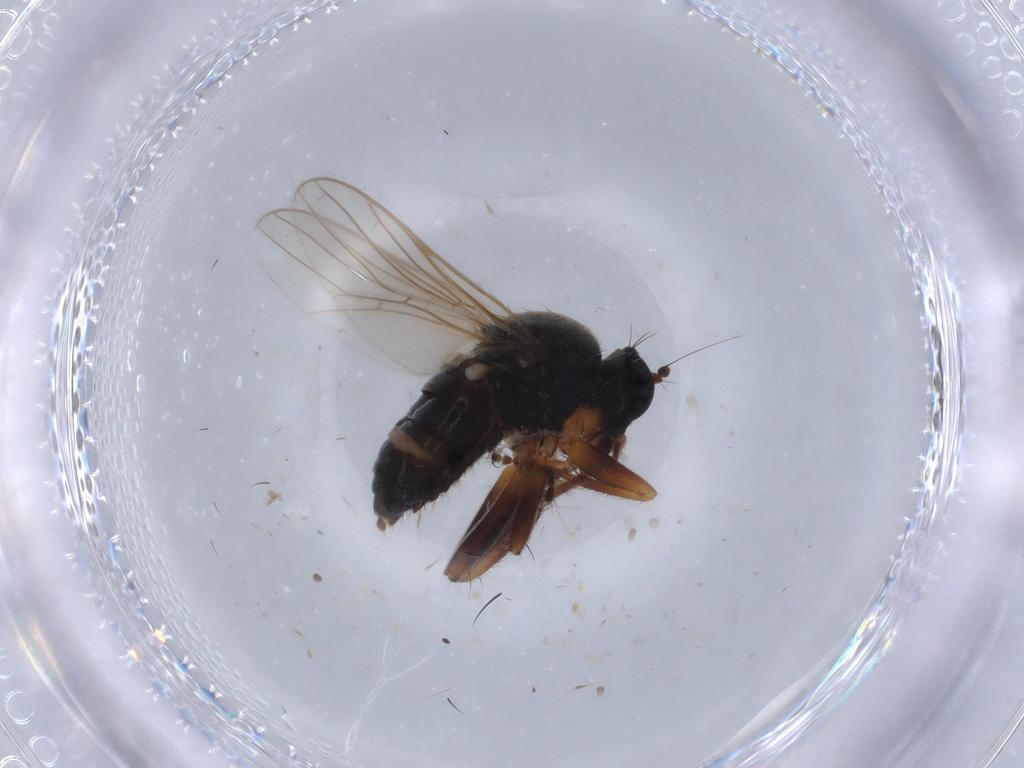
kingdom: Animalia
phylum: Arthropoda
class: Insecta
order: Diptera
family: Hybotidae
